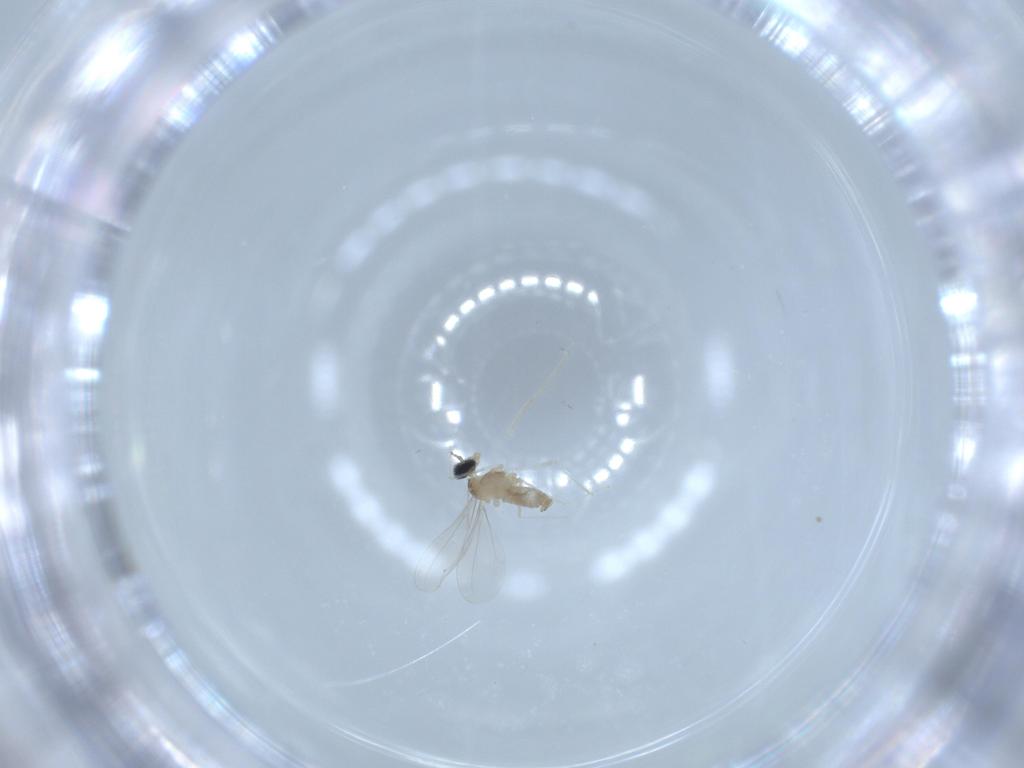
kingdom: Animalia
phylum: Arthropoda
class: Insecta
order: Diptera
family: Cecidomyiidae
